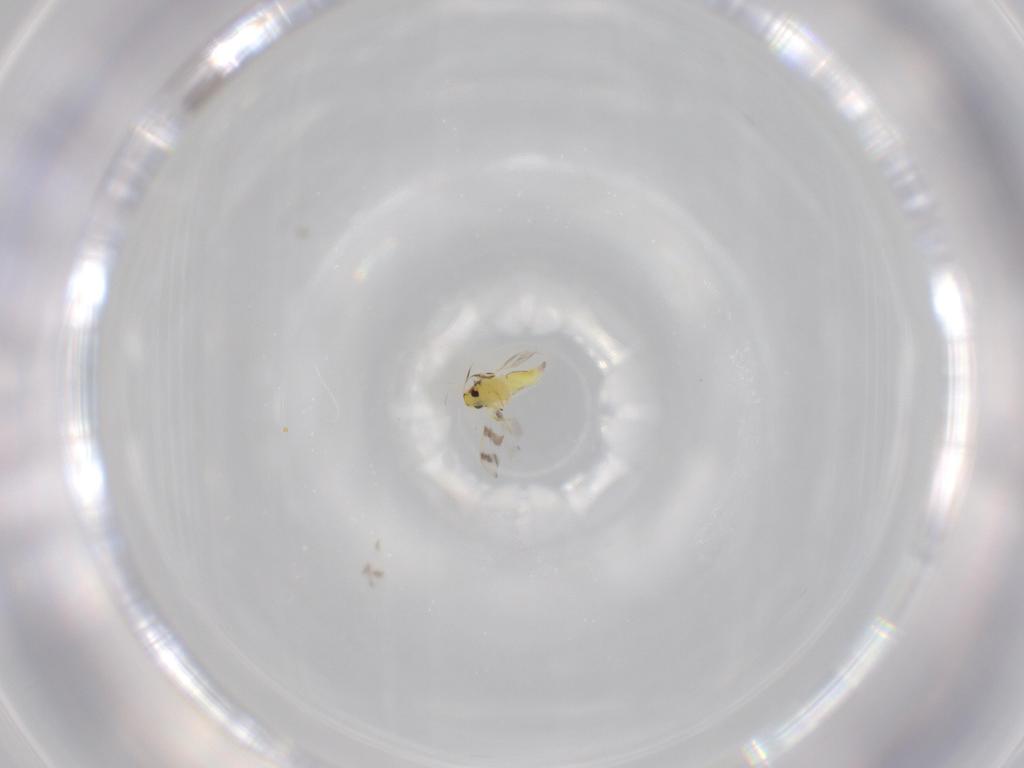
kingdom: Animalia
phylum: Arthropoda
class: Insecta
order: Hemiptera
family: Aleyrodidae
